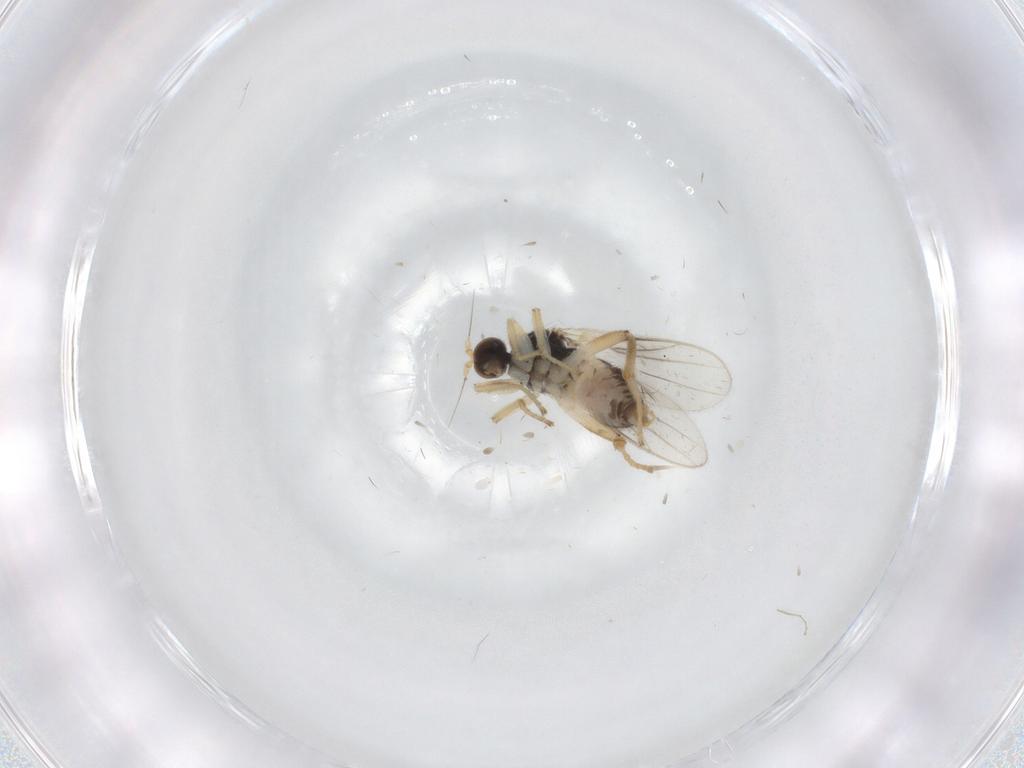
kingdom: Animalia
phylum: Arthropoda
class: Insecta
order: Diptera
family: Hybotidae
